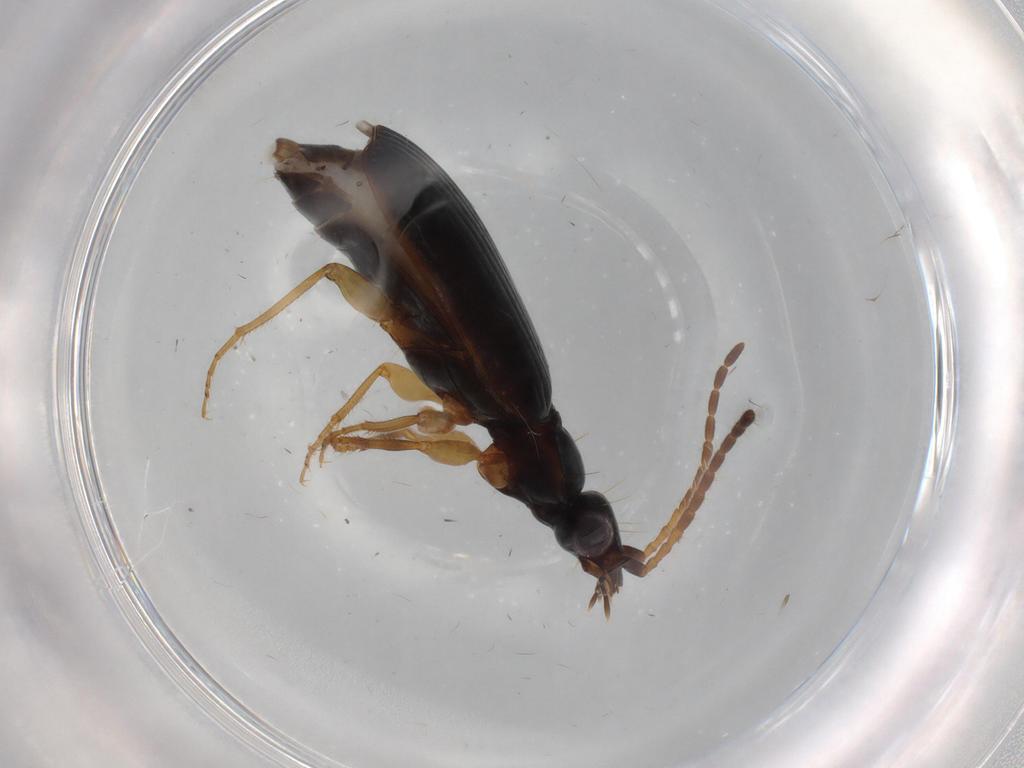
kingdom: Animalia
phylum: Arthropoda
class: Insecta
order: Coleoptera
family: Carabidae
